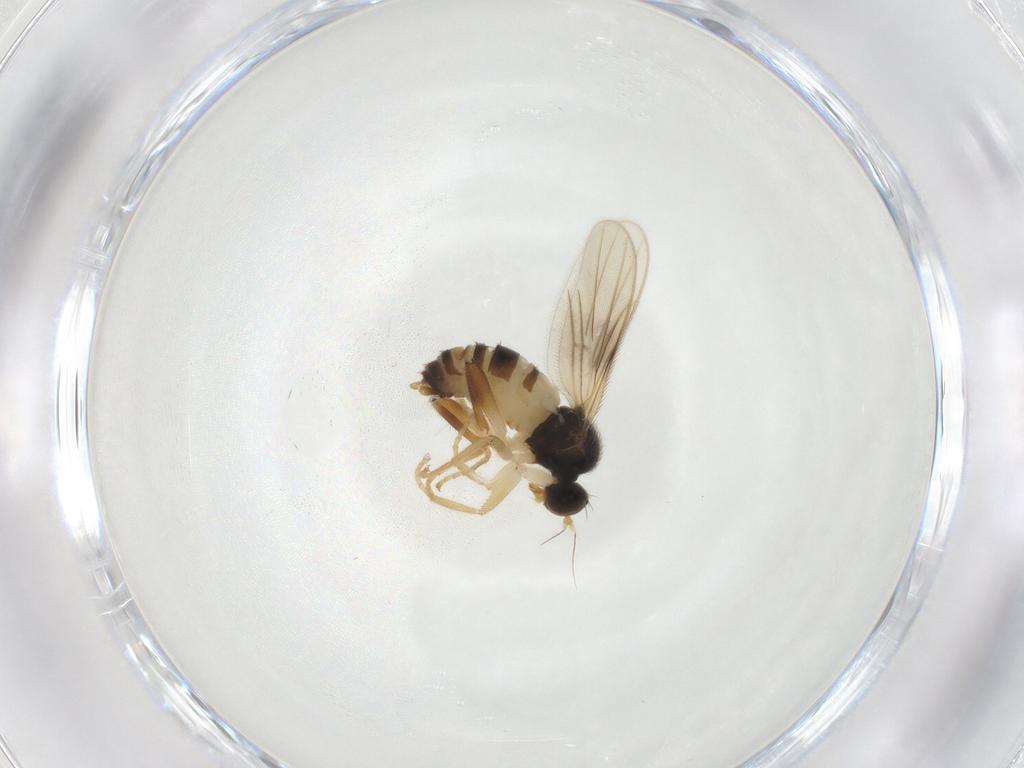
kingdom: Animalia
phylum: Arthropoda
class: Insecta
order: Diptera
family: Hybotidae
